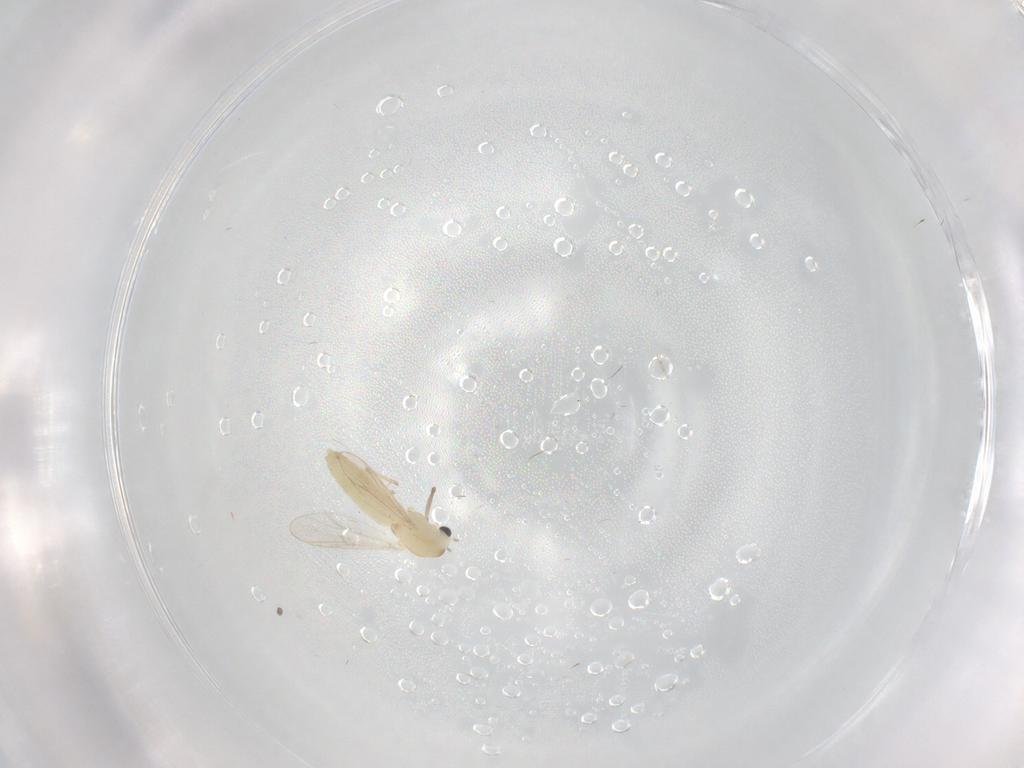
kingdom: Animalia
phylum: Arthropoda
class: Insecta
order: Diptera
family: Chironomidae
